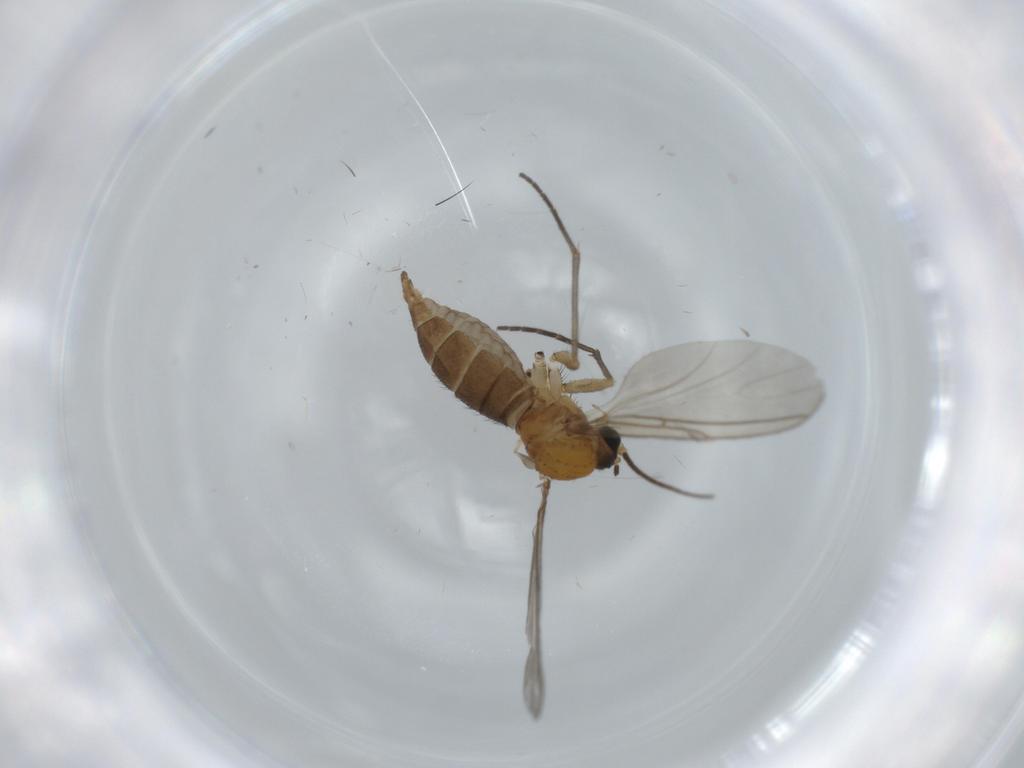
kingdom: Animalia
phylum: Arthropoda
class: Insecta
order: Diptera
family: Sciaridae
